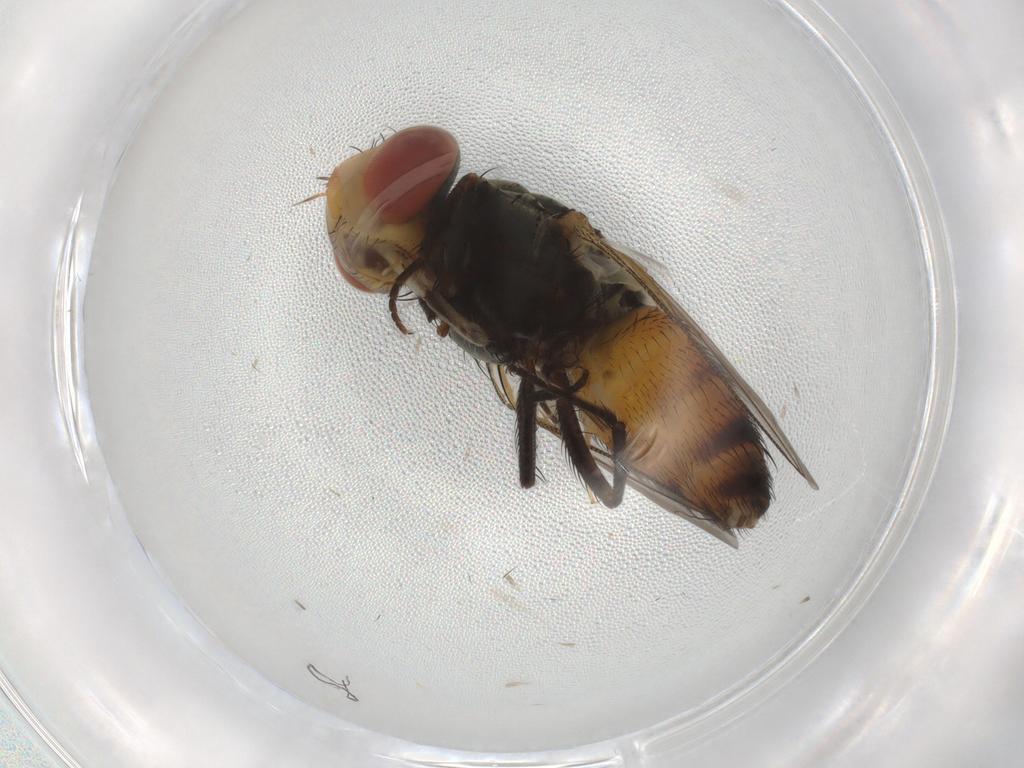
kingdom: Animalia
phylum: Arthropoda
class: Insecta
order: Diptera
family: Sarcophagidae
